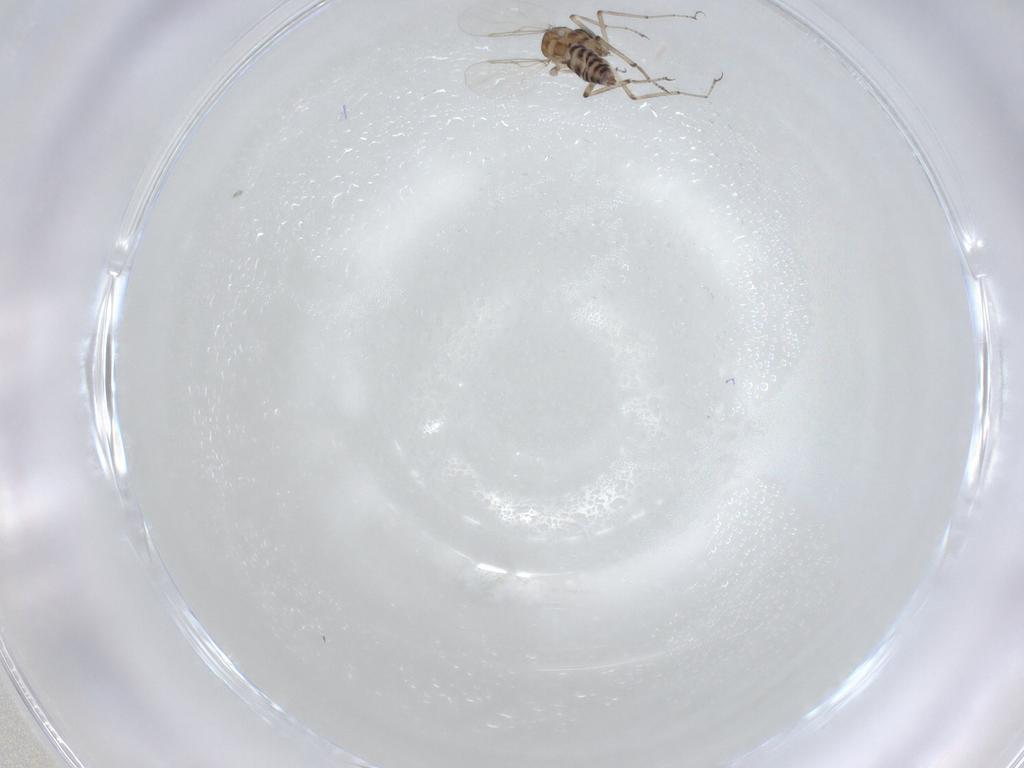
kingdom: Animalia
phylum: Arthropoda
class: Insecta
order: Diptera
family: Ceratopogonidae
